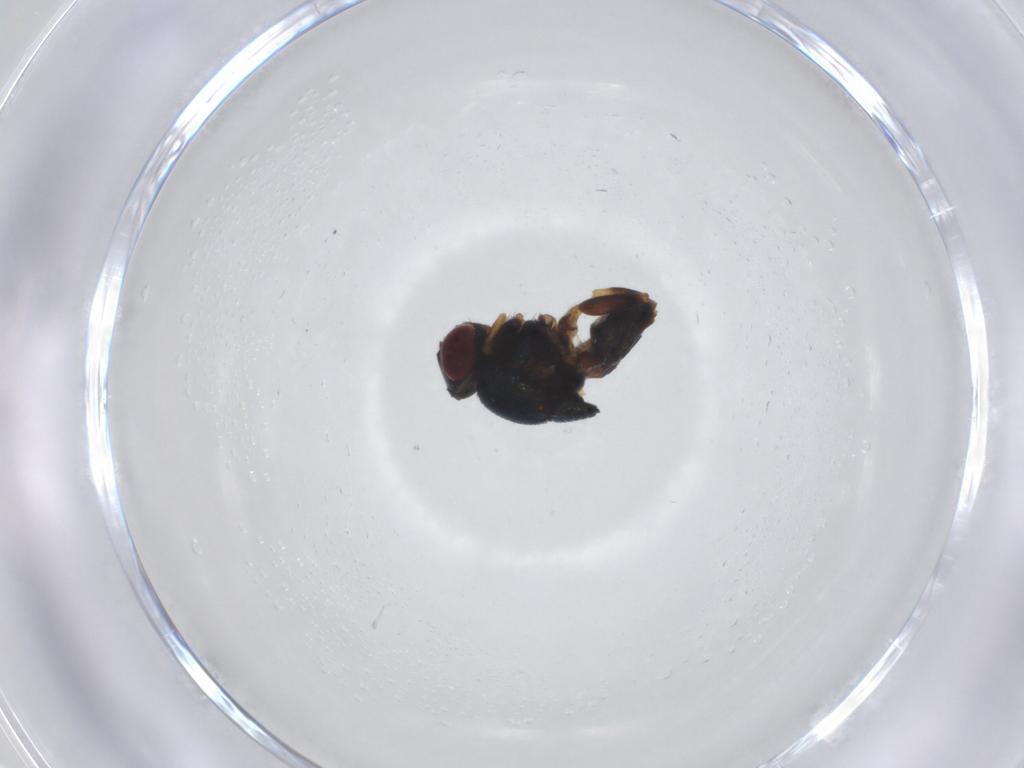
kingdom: Animalia
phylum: Arthropoda
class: Insecta
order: Diptera
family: Chloropidae
